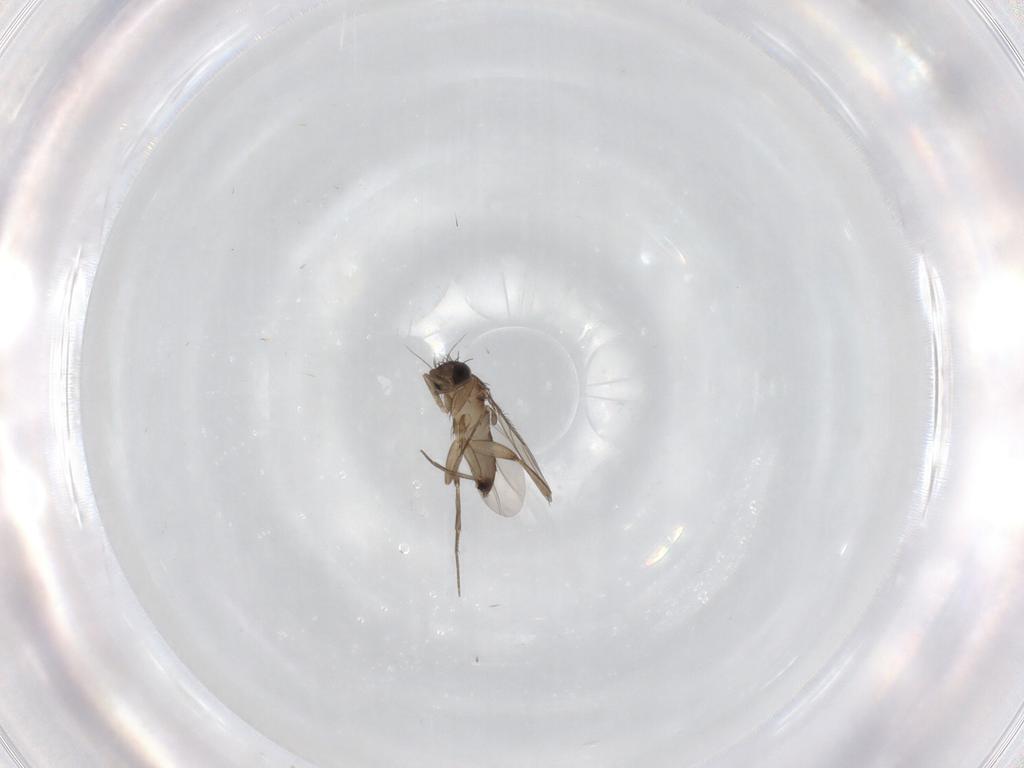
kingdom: Animalia
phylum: Arthropoda
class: Insecta
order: Diptera
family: Phoridae
